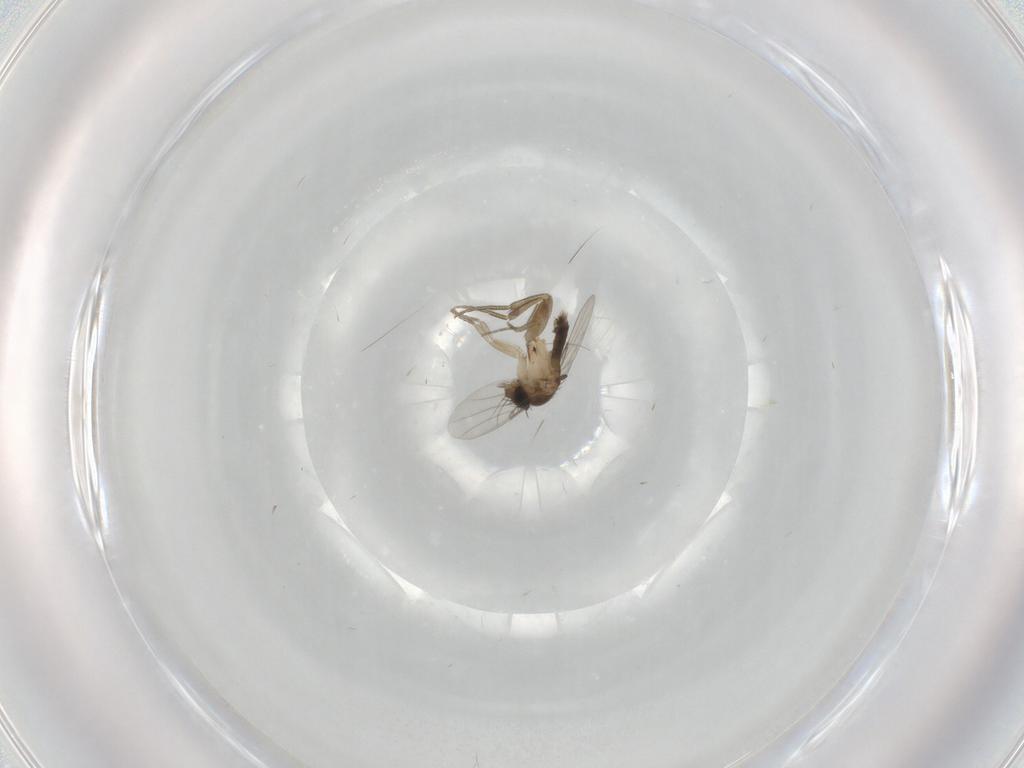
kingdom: Animalia
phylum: Arthropoda
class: Insecta
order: Diptera
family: Phoridae
